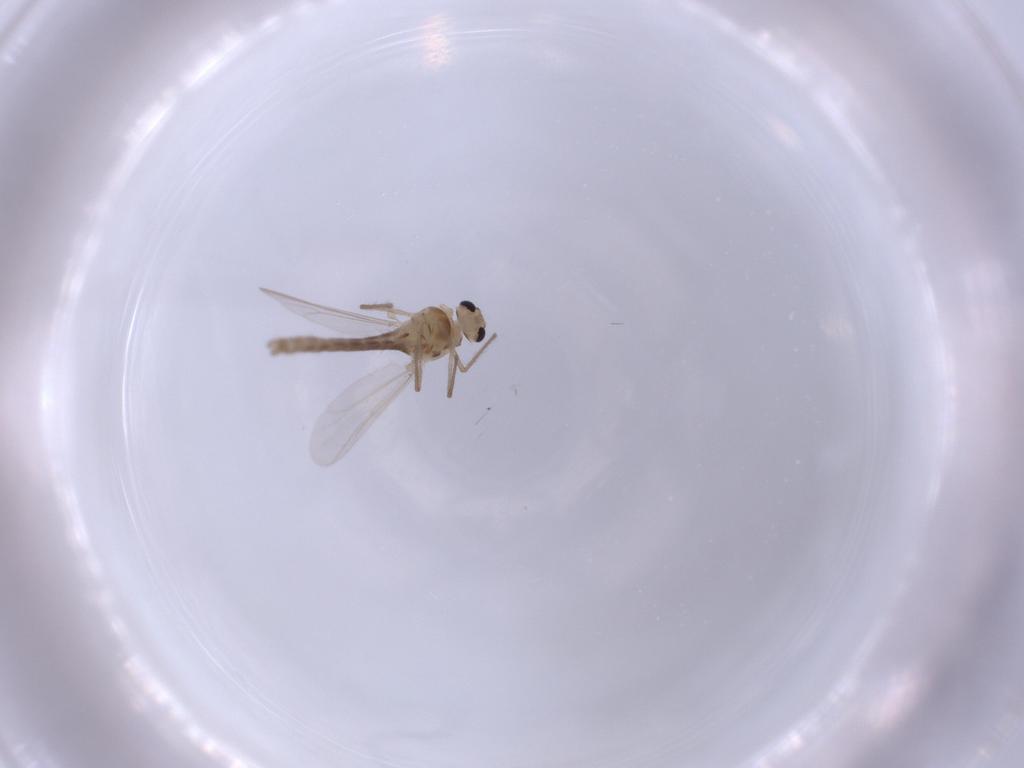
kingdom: Animalia
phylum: Arthropoda
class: Insecta
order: Diptera
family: Chironomidae
